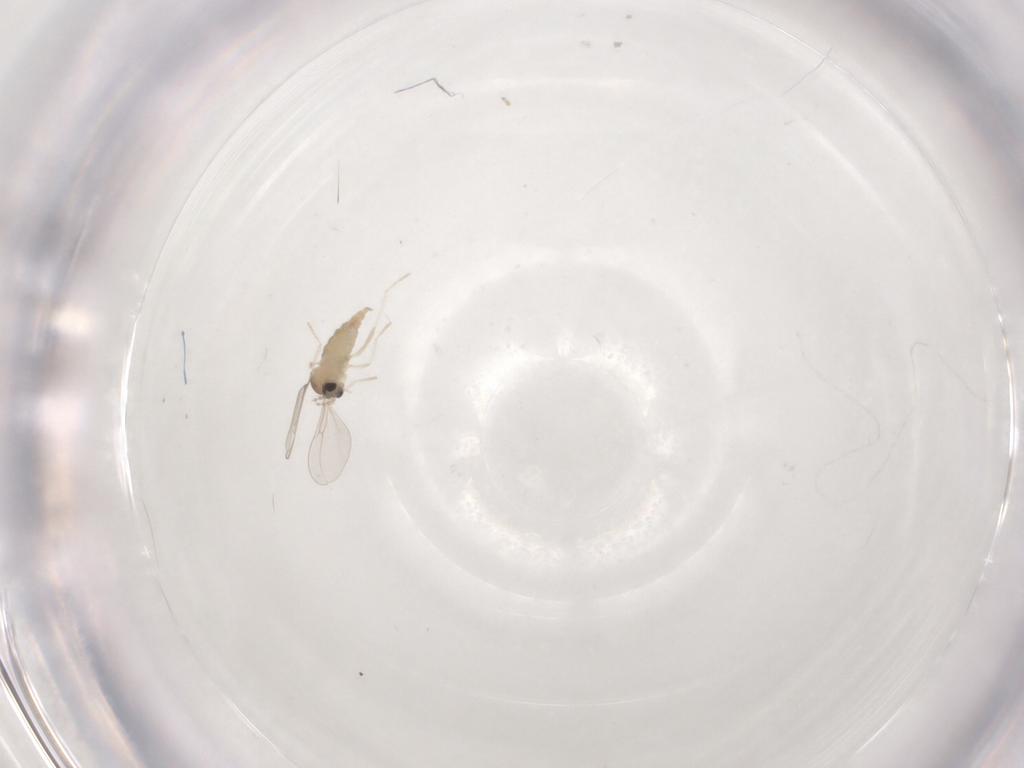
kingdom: Animalia
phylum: Arthropoda
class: Insecta
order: Diptera
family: Cecidomyiidae
